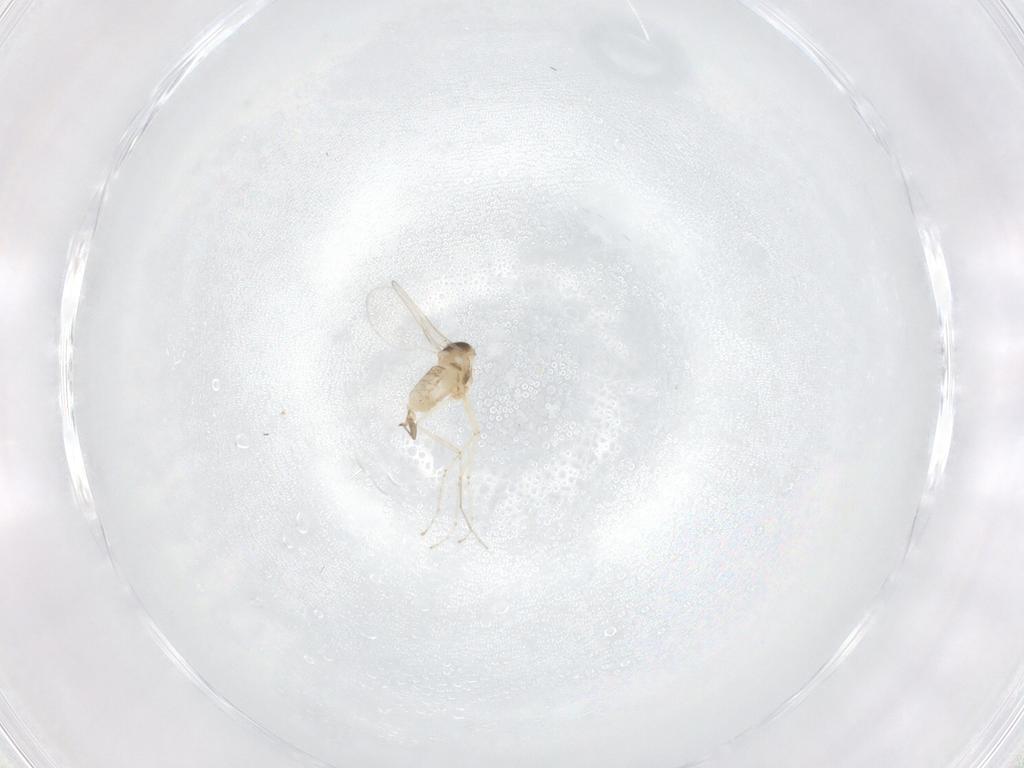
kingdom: Animalia
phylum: Arthropoda
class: Insecta
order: Diptera
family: Cecidomyiidae
